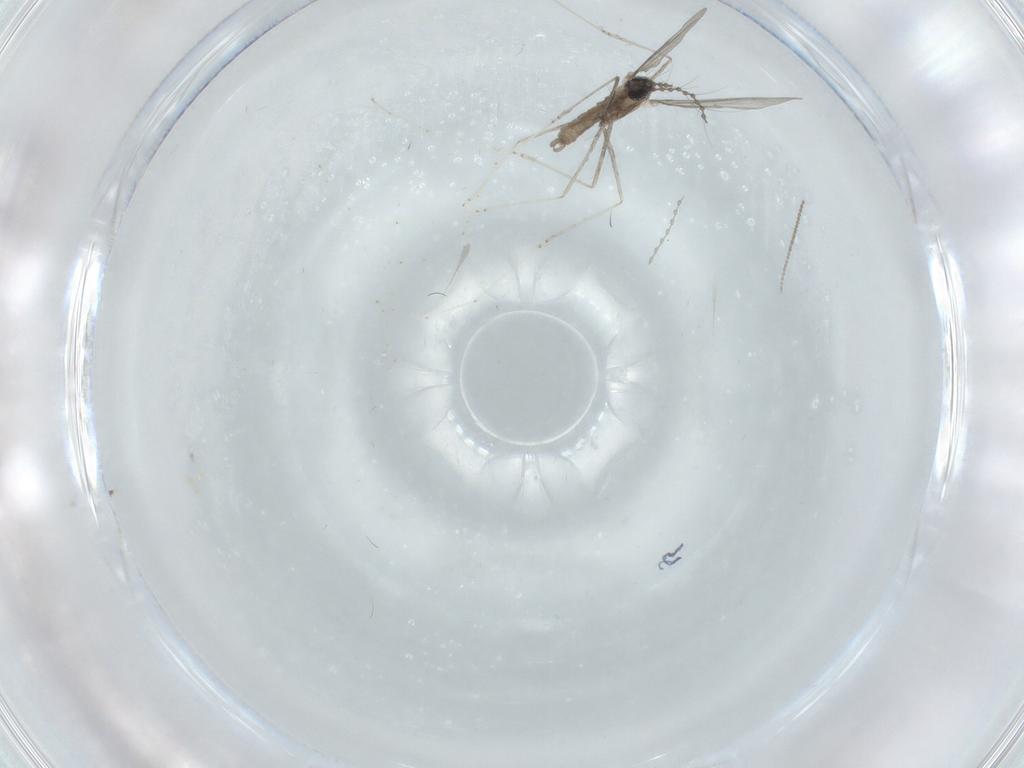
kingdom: Animalia
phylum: Arthropoda
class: Insecta
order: Diptera
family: Cecidomyiidae
